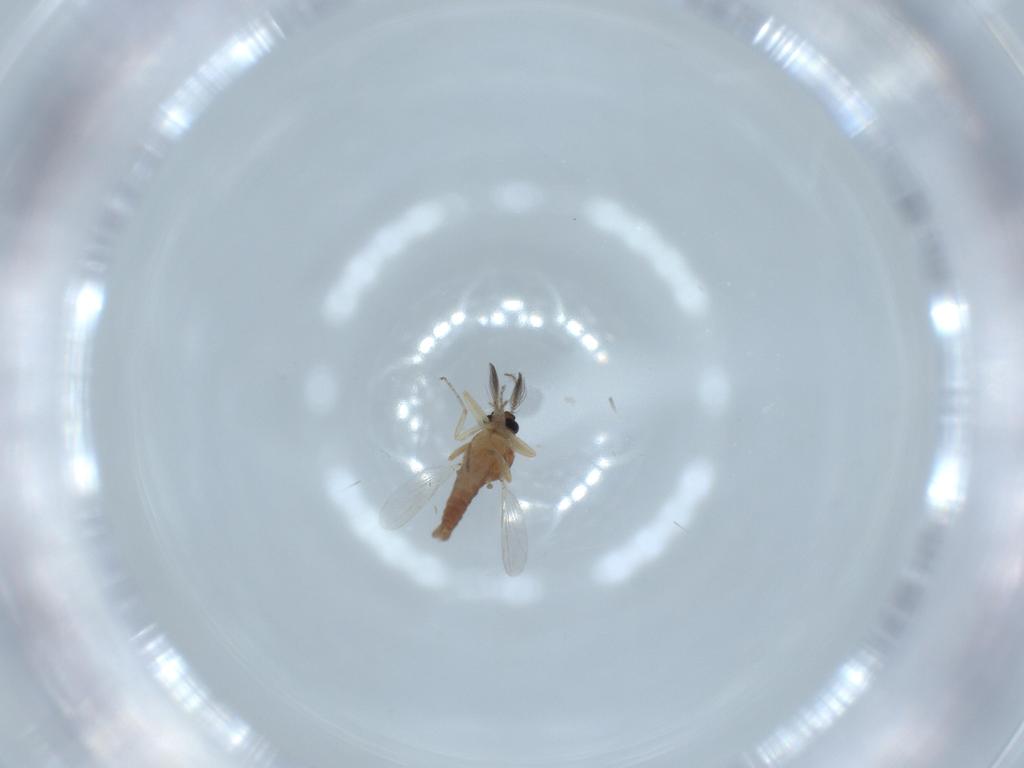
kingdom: Animalia
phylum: Arthropoda
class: Insecta
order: Diptera
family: Ceratopogonidae
